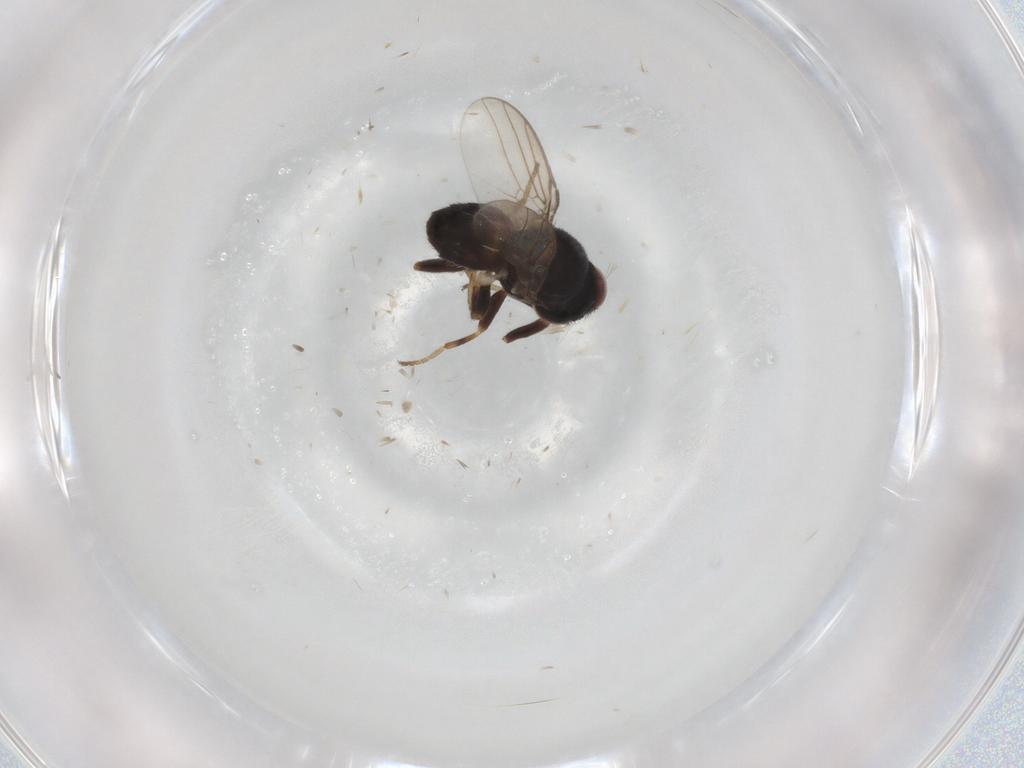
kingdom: Animalia
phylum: Arthropoda
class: Insecta
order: Diptera
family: Chloropidae
